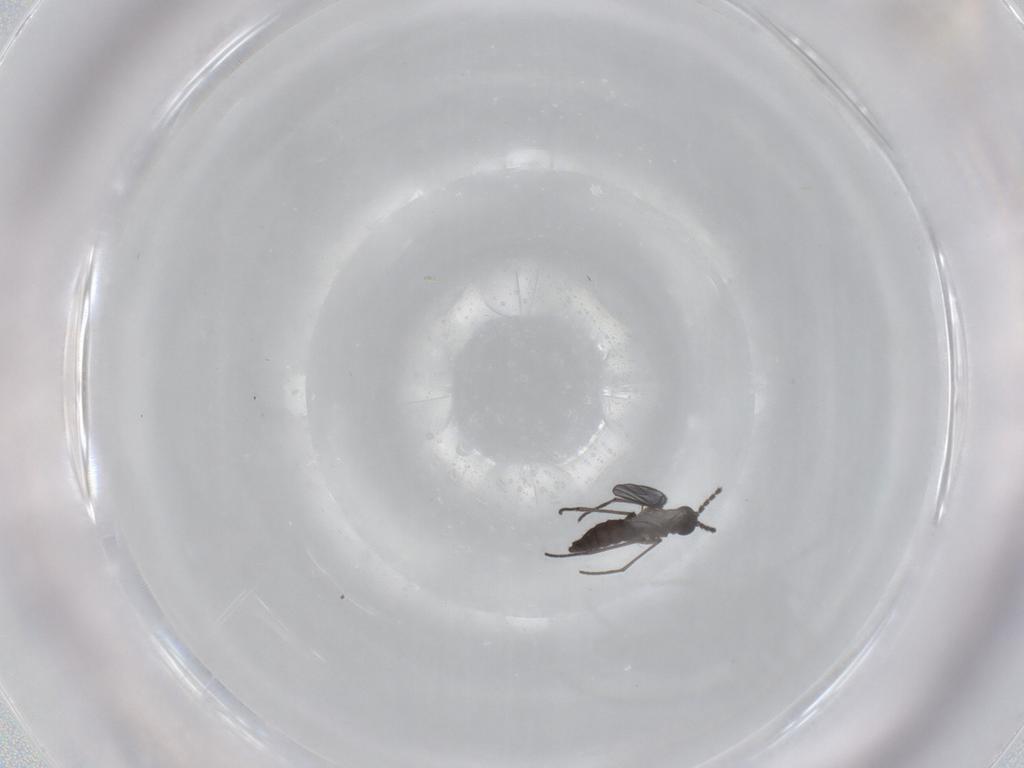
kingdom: Animalia
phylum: Arthropoda
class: Insecta
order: Diptera
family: Cecidomyiidae
